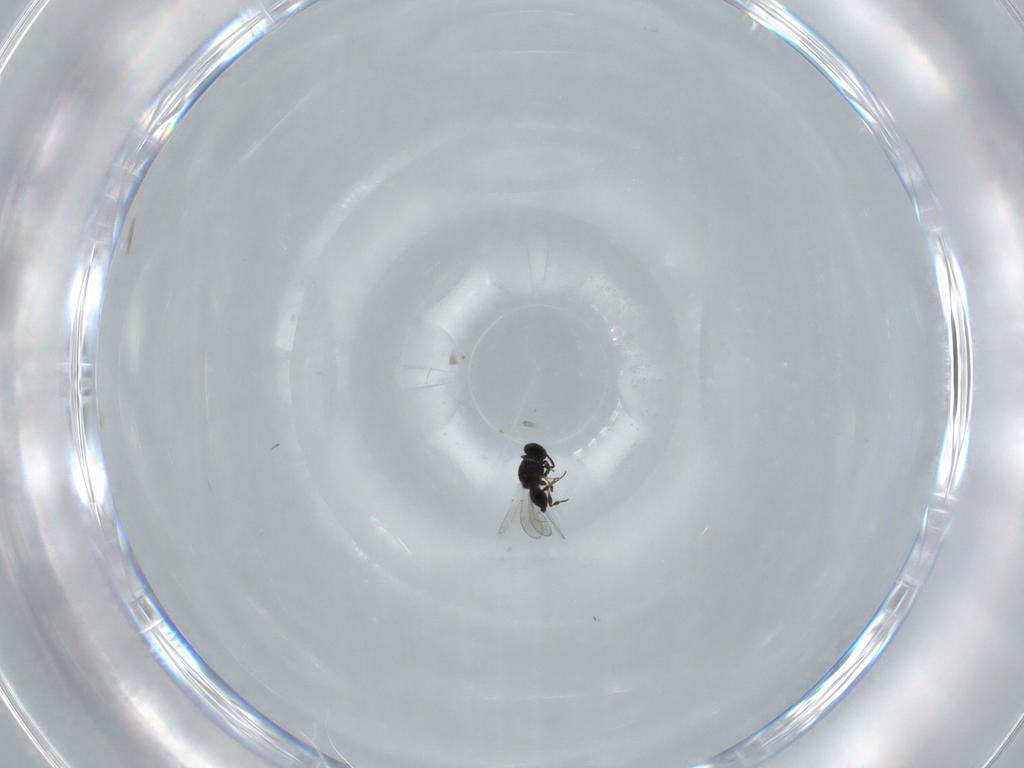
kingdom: Animalia
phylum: Arthropoda
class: Insecta
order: Hymenoptera
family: Platygastridae
